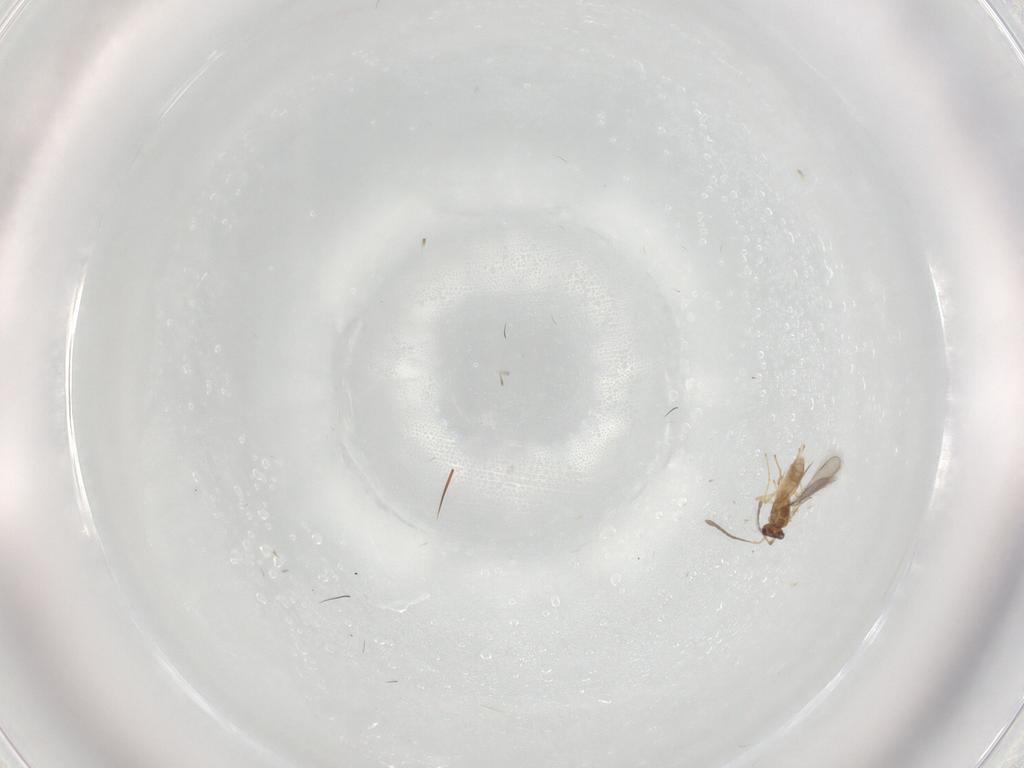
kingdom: Animalia
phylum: Arthropoda
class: Insecta
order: Hymenoptera
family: Mymaridae
